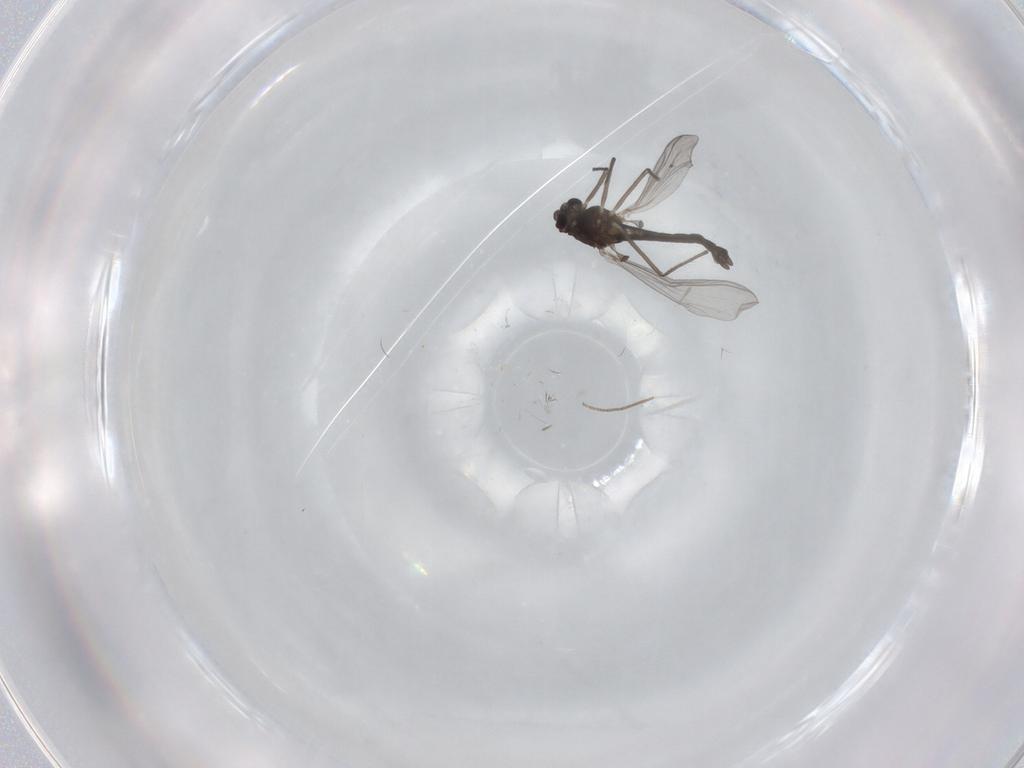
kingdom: Animalia
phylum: Arthropoda
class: Insecta
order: Diptera
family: Chironomidae
